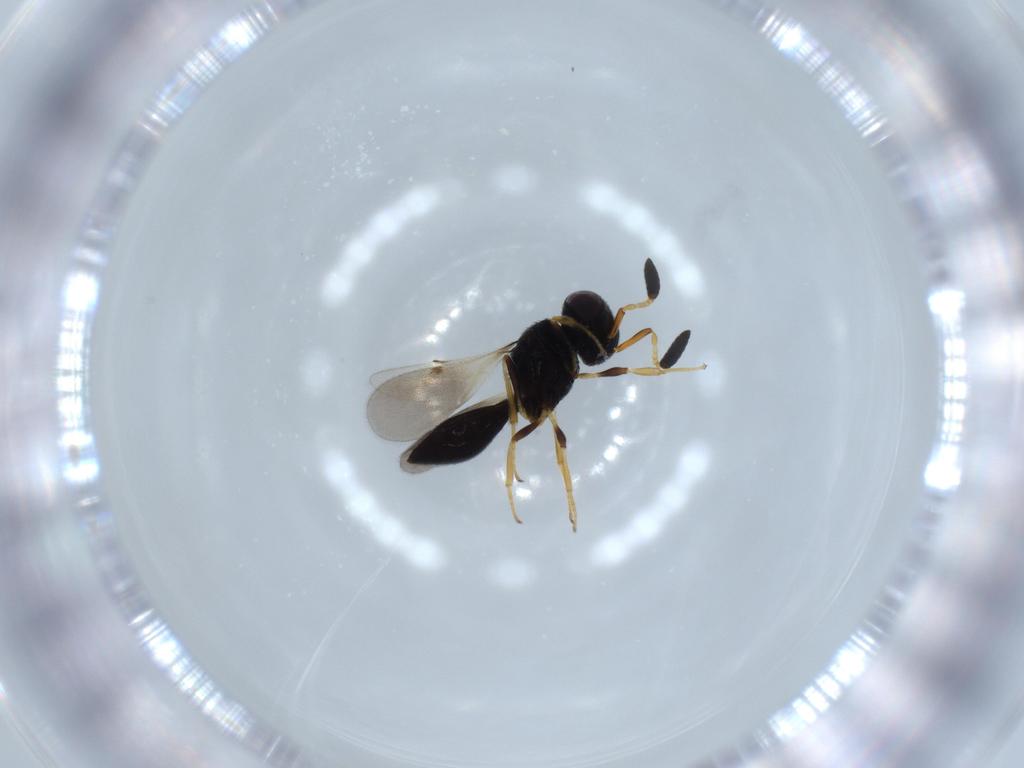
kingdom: Animalia
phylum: Arthropoda
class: Insecta
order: Hymenoptera
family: Scelionidae
